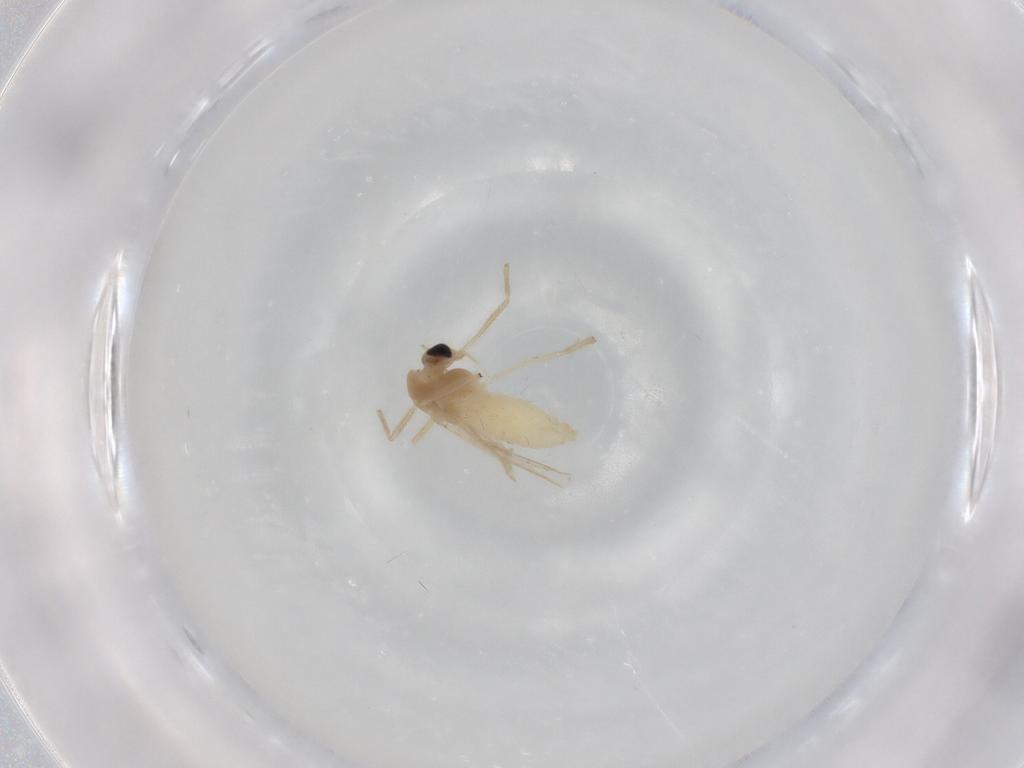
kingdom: Animalia
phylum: Arthropoda
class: Insecta
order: Diptera
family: Chironomidae
